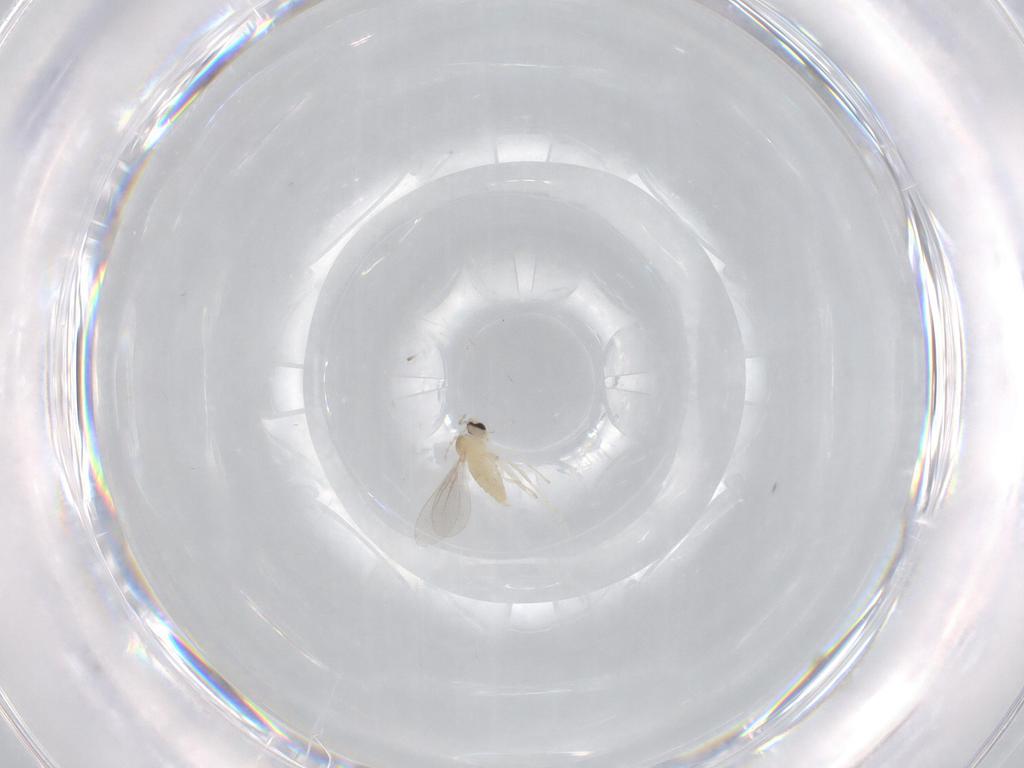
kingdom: Animalia
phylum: Arthropoda
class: Insecta
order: Diptera
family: Cecidomyiidae
